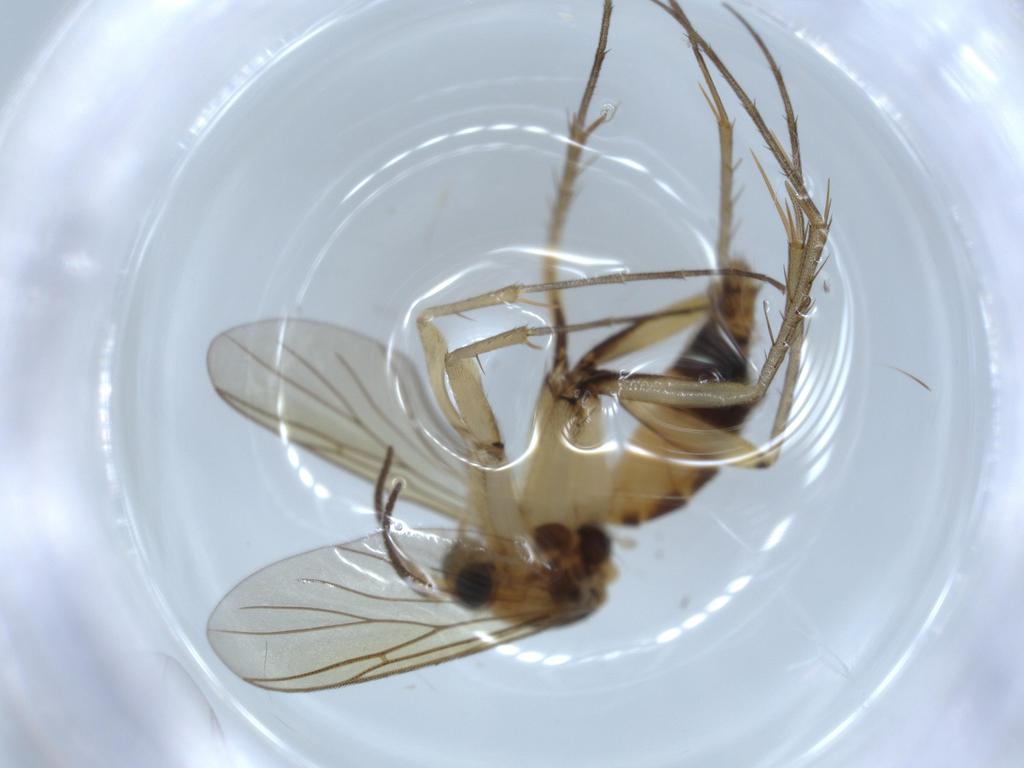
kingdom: Animalia
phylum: Arthropoda
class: Insecta
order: Diptera
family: Mycetophilidae
